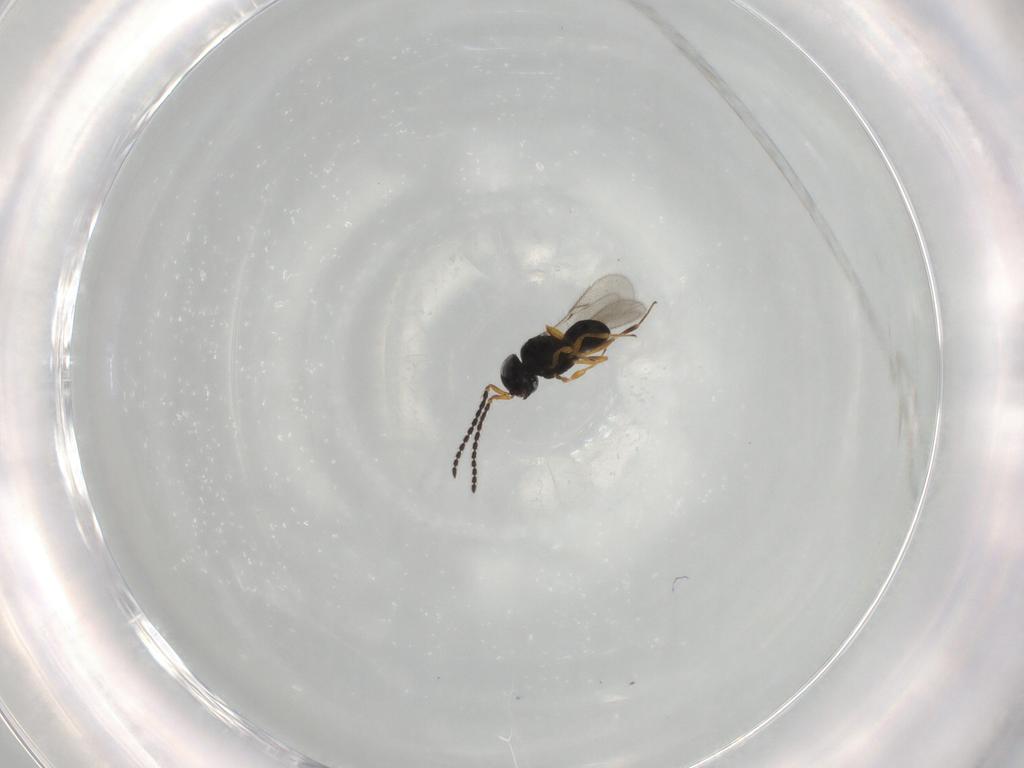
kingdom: Animalia
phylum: Arthropoda
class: Insecta
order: Hymenoptera
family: Scelionidae
